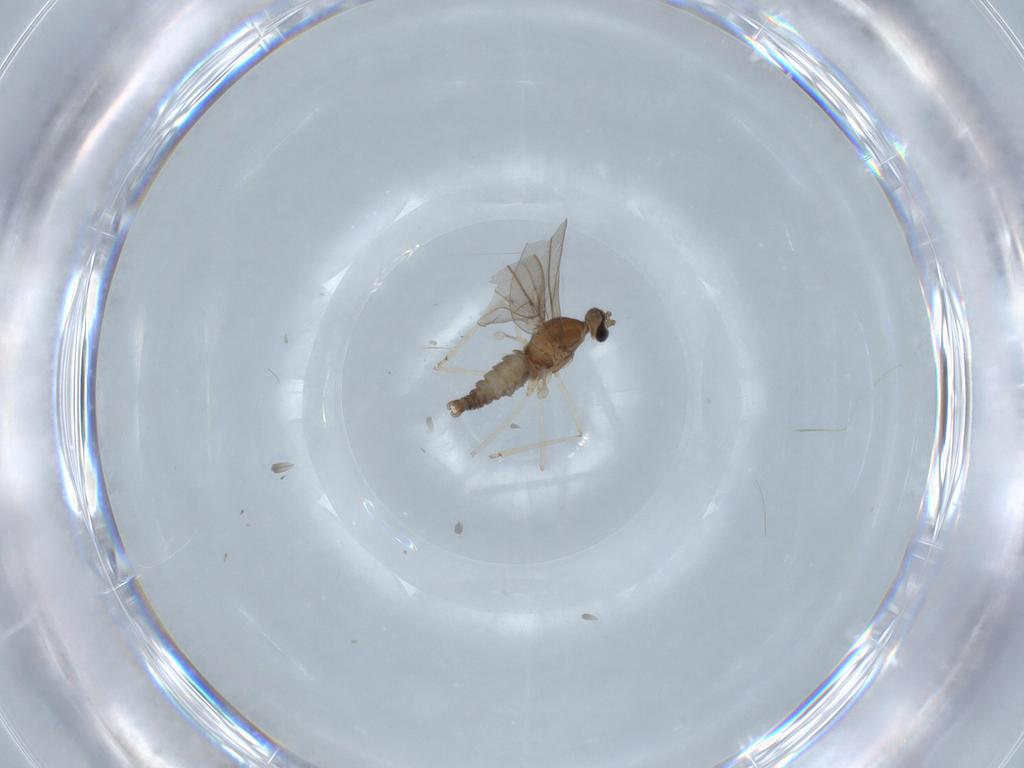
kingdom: Animalia
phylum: Arthropoda
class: Insecta
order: Diptera
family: Cecidomyiidae
